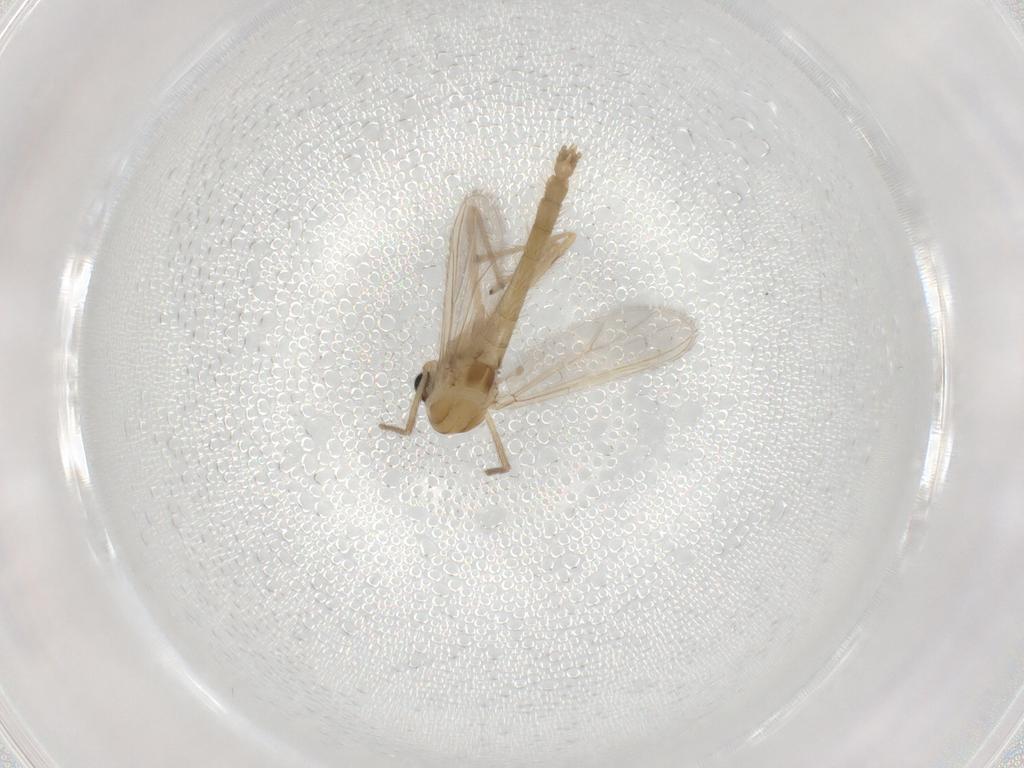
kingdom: Animalia
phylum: Arthropoda
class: Insecta
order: Diptera
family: Chironomidae
